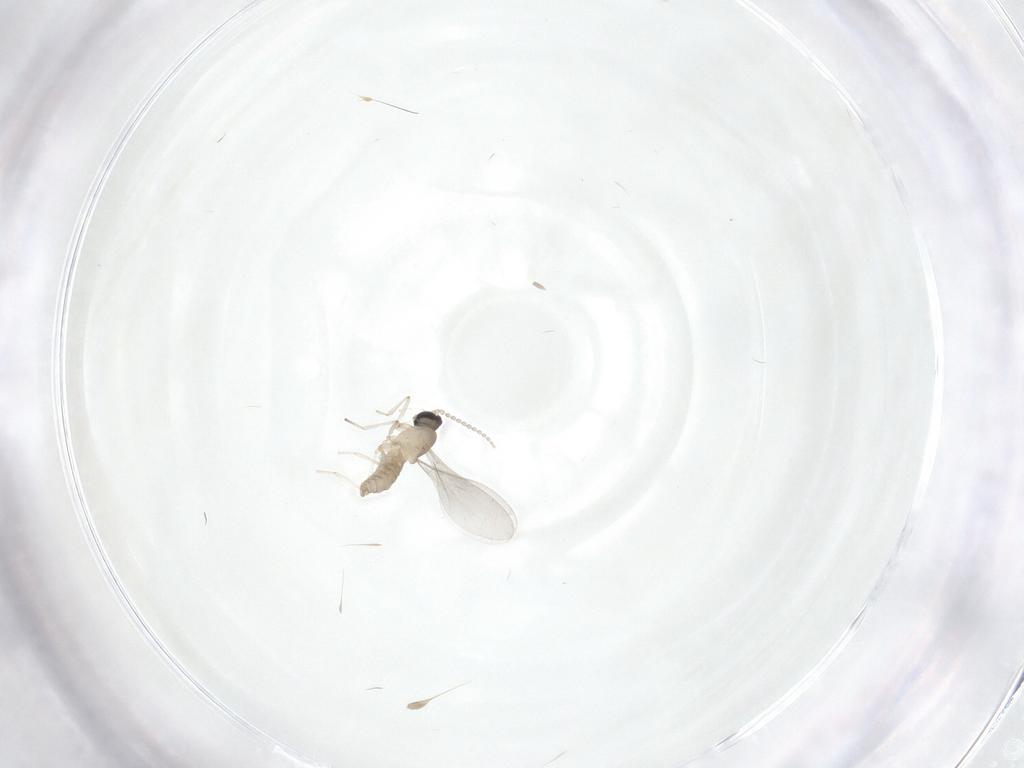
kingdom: Animalia
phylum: Arthropoda
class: Insecta
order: Diptera
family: Cecidomyiidae
